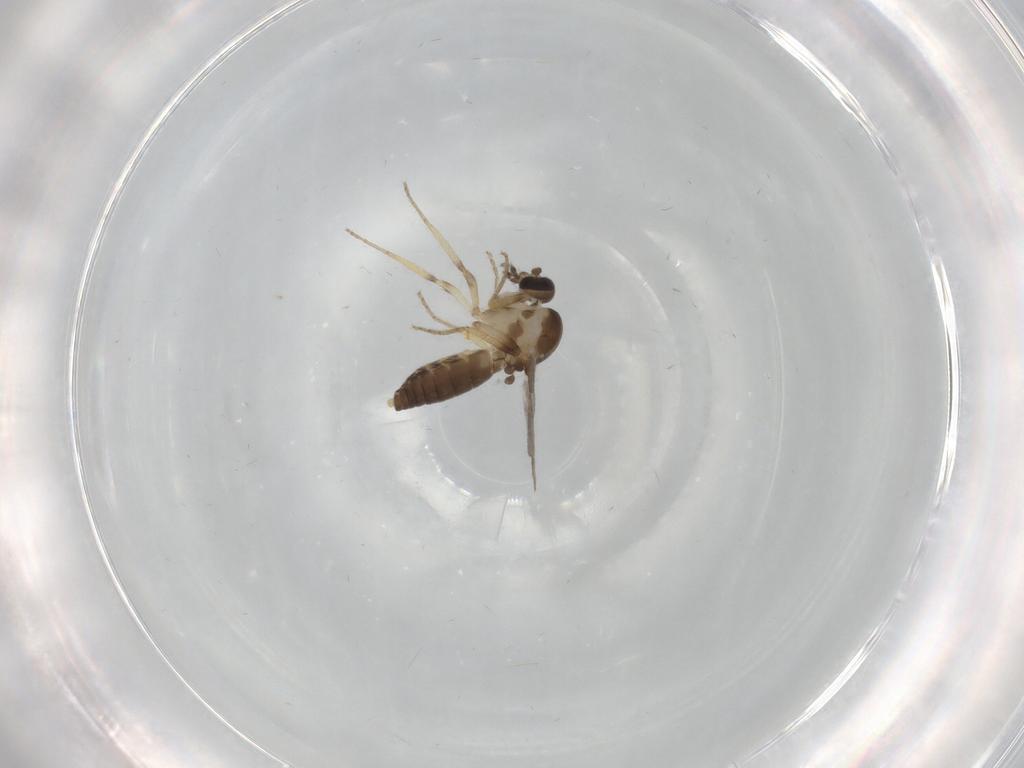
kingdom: Animalia
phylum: Arthropoda
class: Insecta
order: Diptera
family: Ceratopogonidae
